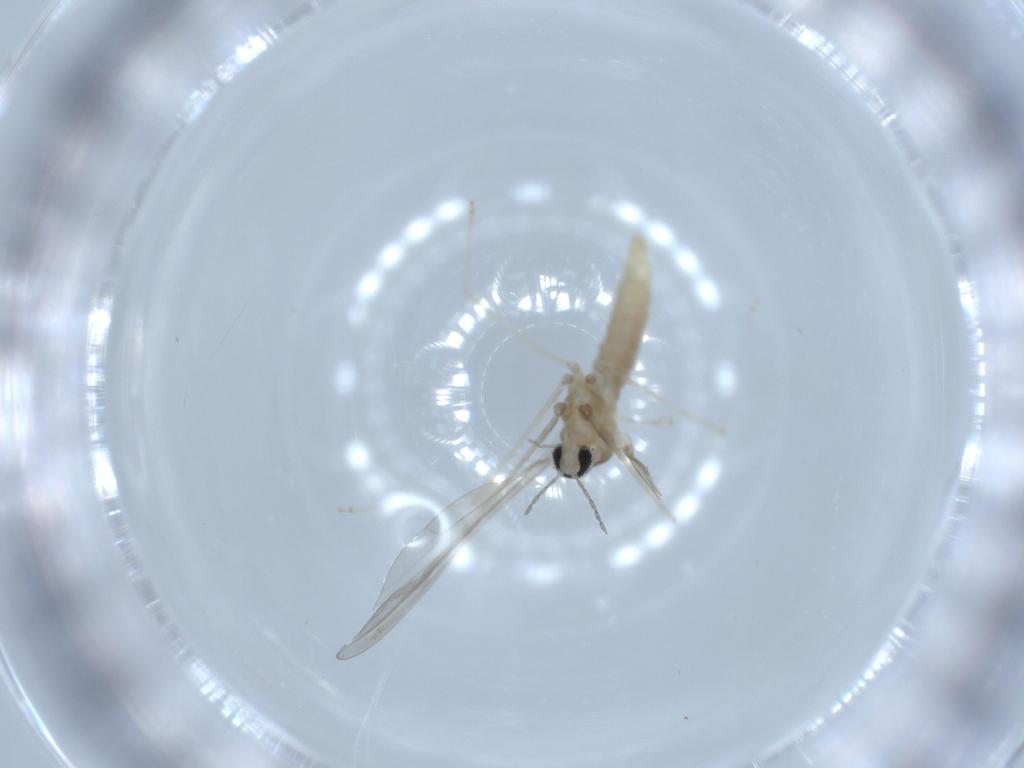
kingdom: Animalia
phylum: Arthropoda
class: Insecta
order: Diptera
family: Cecidomyiidae
